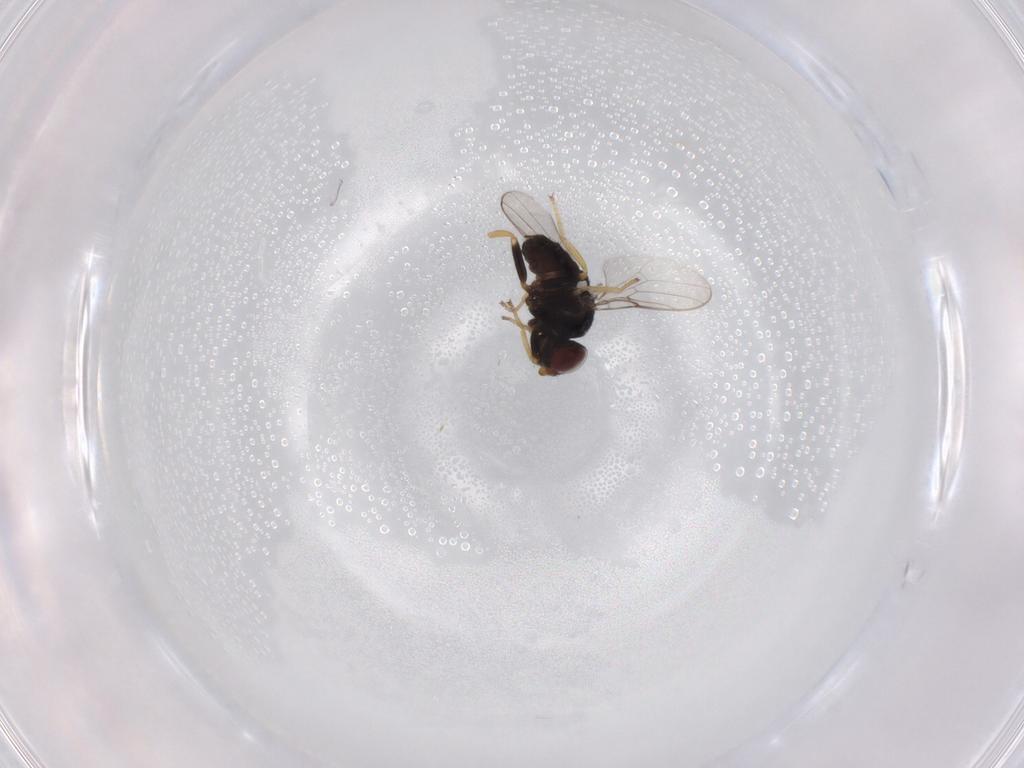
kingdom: Animalia
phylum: Arthropoda
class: Insecta
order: Diptera
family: Chloropidae
